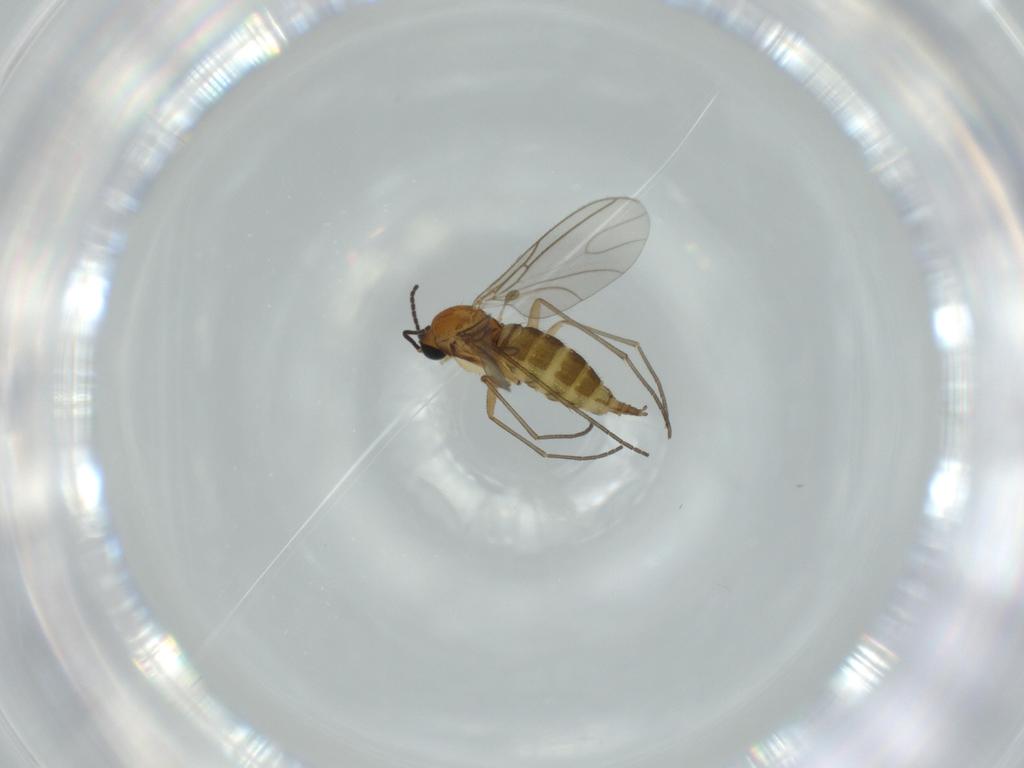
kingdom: Animalia
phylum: Arthropoda
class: Insecta
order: Diptera
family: Sciaridae
